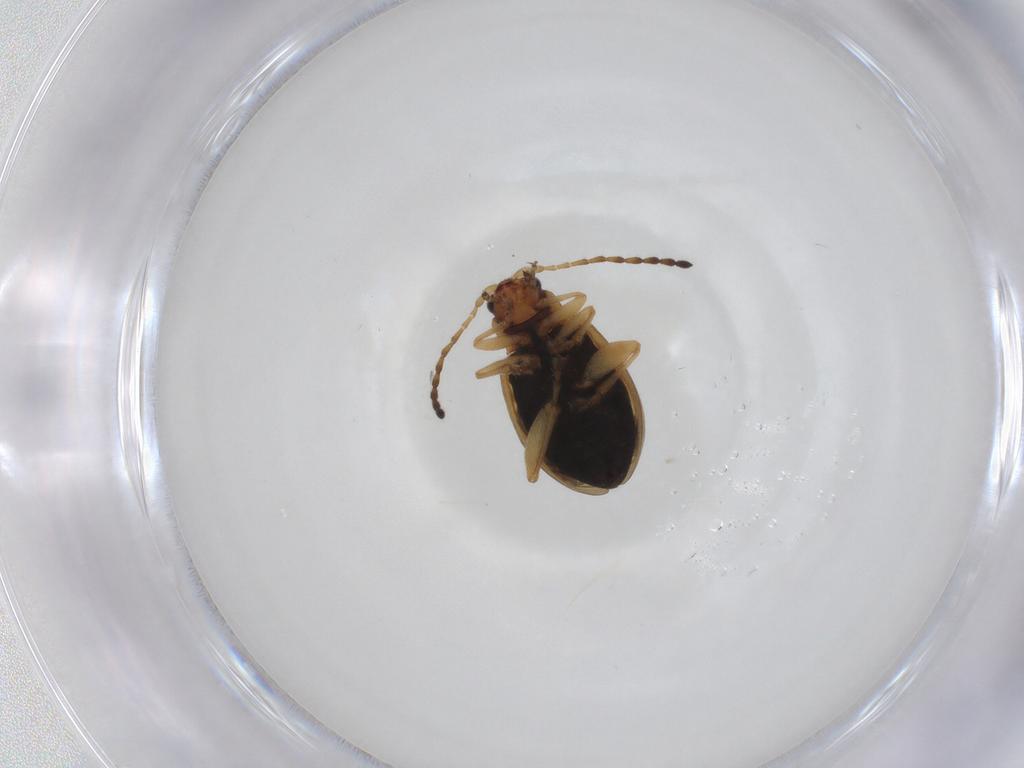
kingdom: Animalia
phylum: Arthropoda
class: Insecta
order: Coleoptera
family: Chrysomelidae
